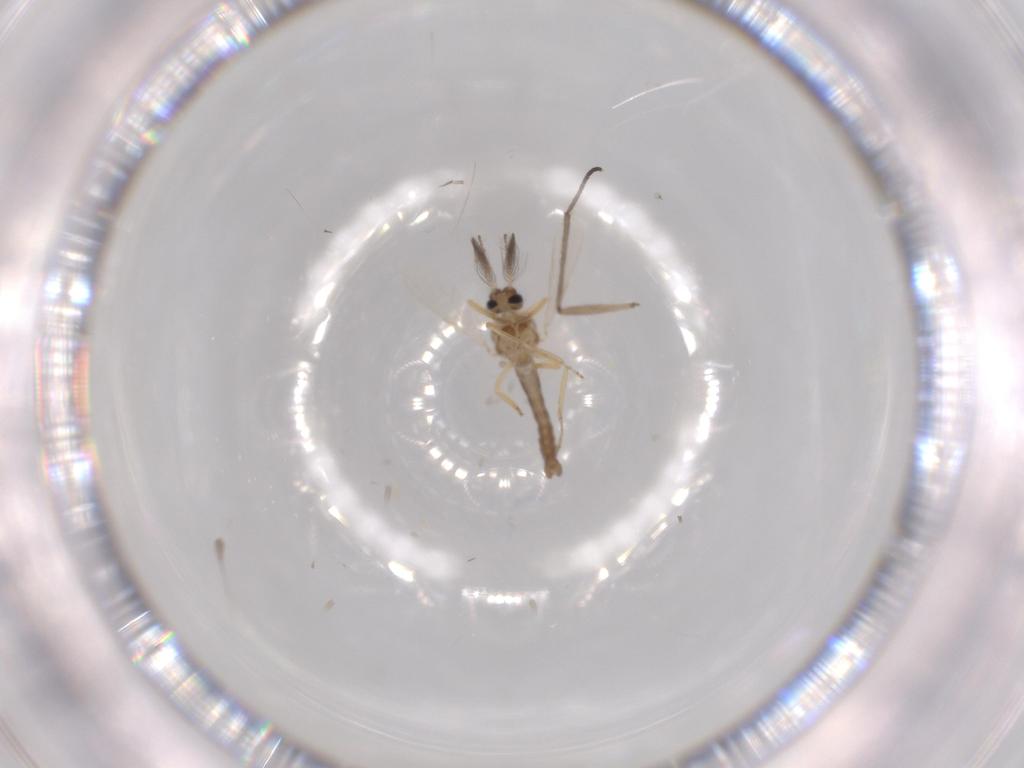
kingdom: Animalia
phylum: Arthropoda
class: Insecta
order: Diptera
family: Ceratopogonidae
